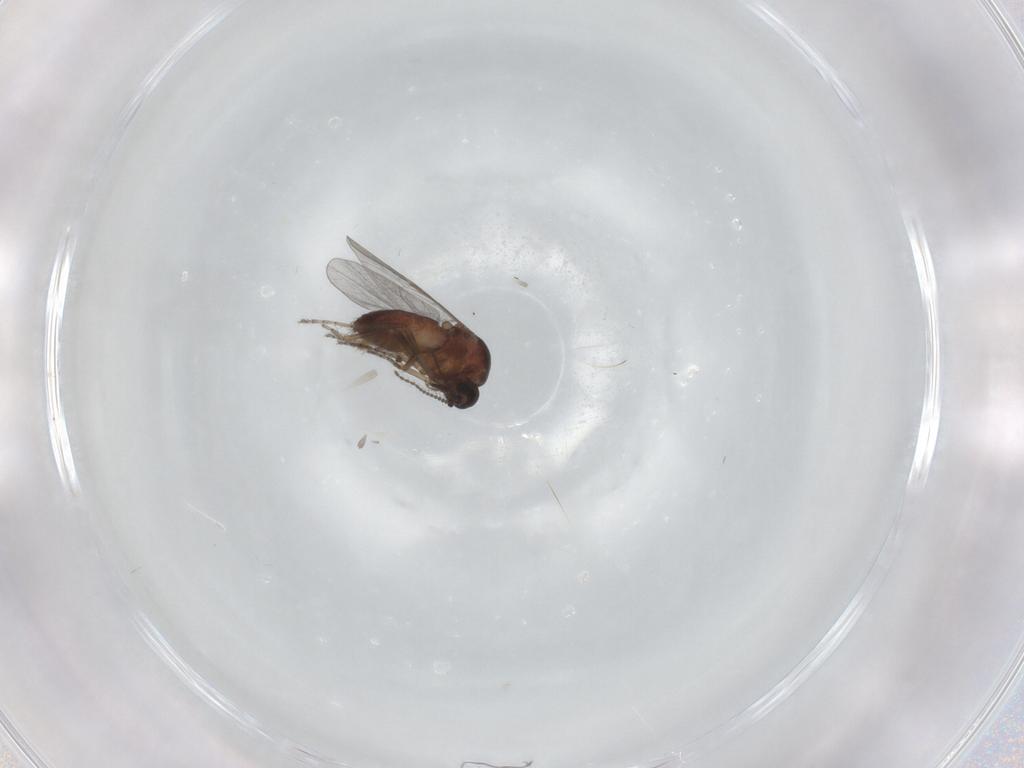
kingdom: Animalia
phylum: Arthropoda
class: Insecta
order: Diptera
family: Ceratopogonidae
